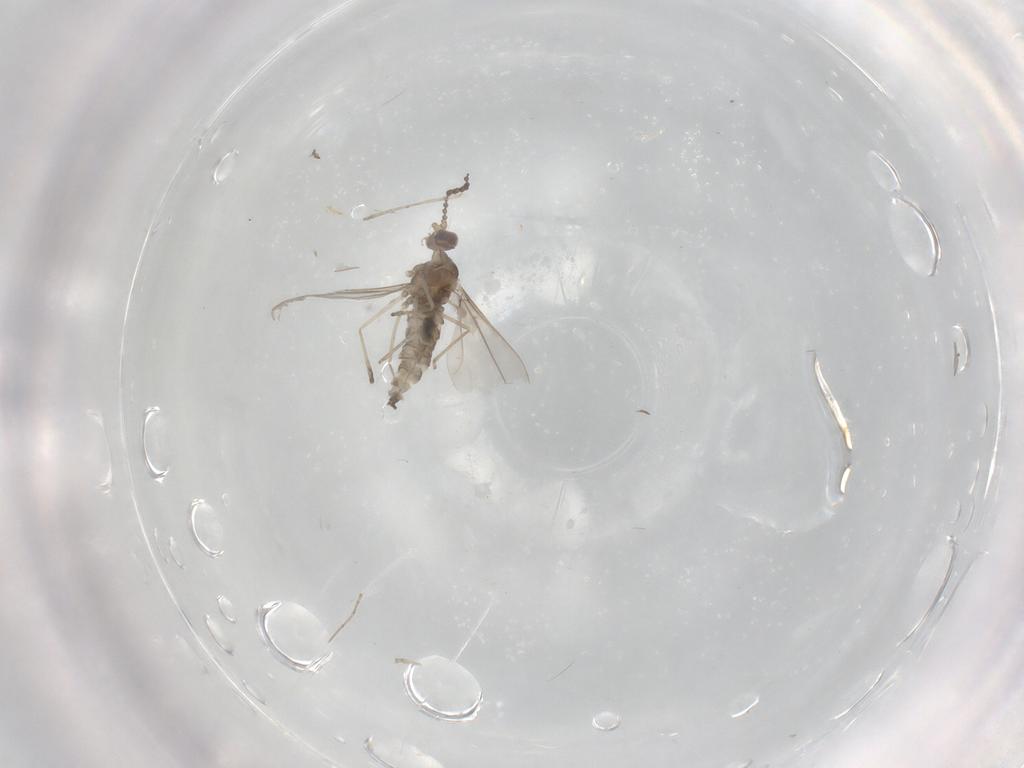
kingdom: Animalia
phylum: Arthropoda
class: Insecta
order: Diptera
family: Cecidomyiidae
